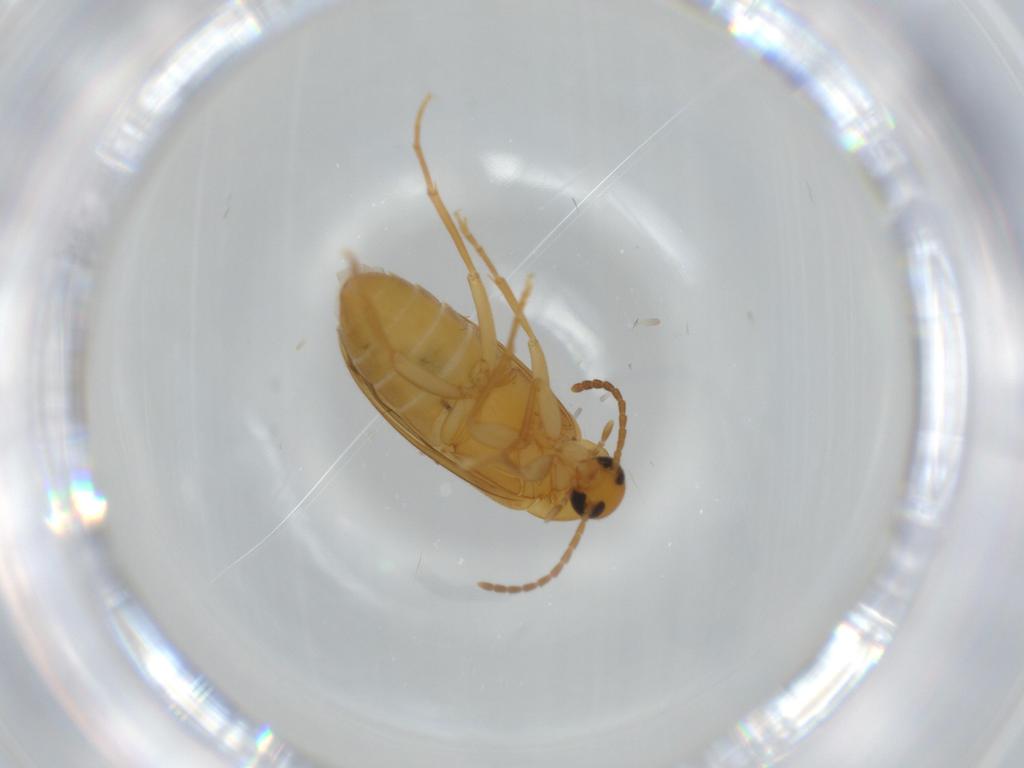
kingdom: Animalia
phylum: Arthropoda
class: Insecta
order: Coleoptera
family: Scraptiidae
